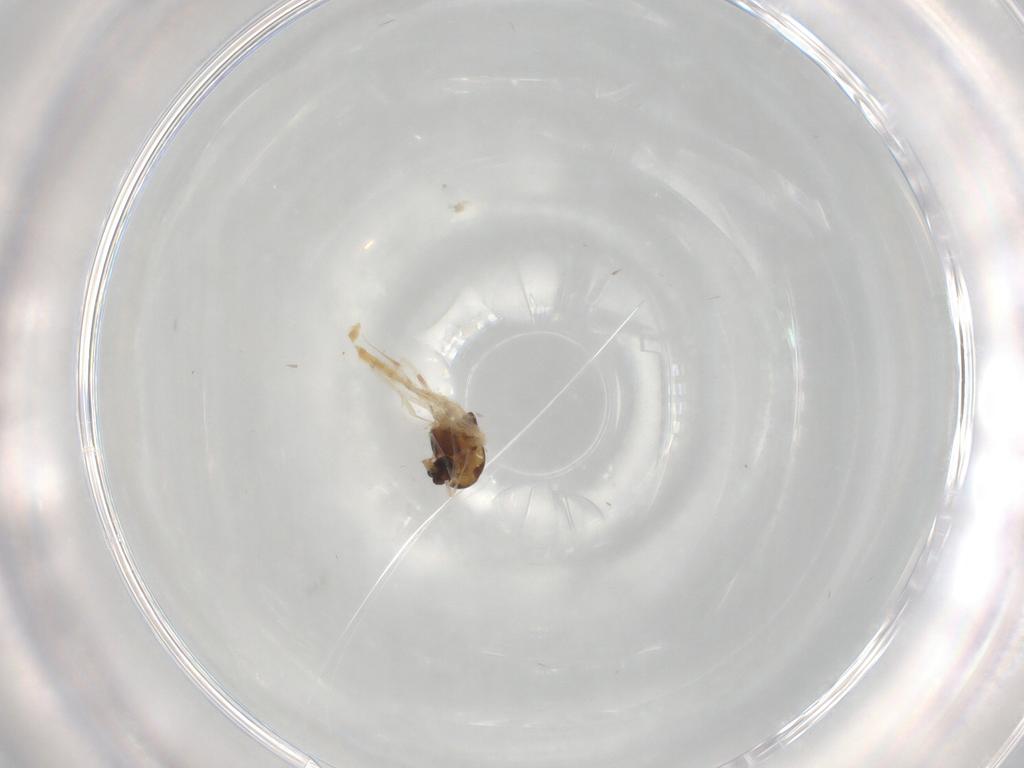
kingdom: Animalia
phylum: Arthropoda
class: Insecta
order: Diptera
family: Chironomidae
